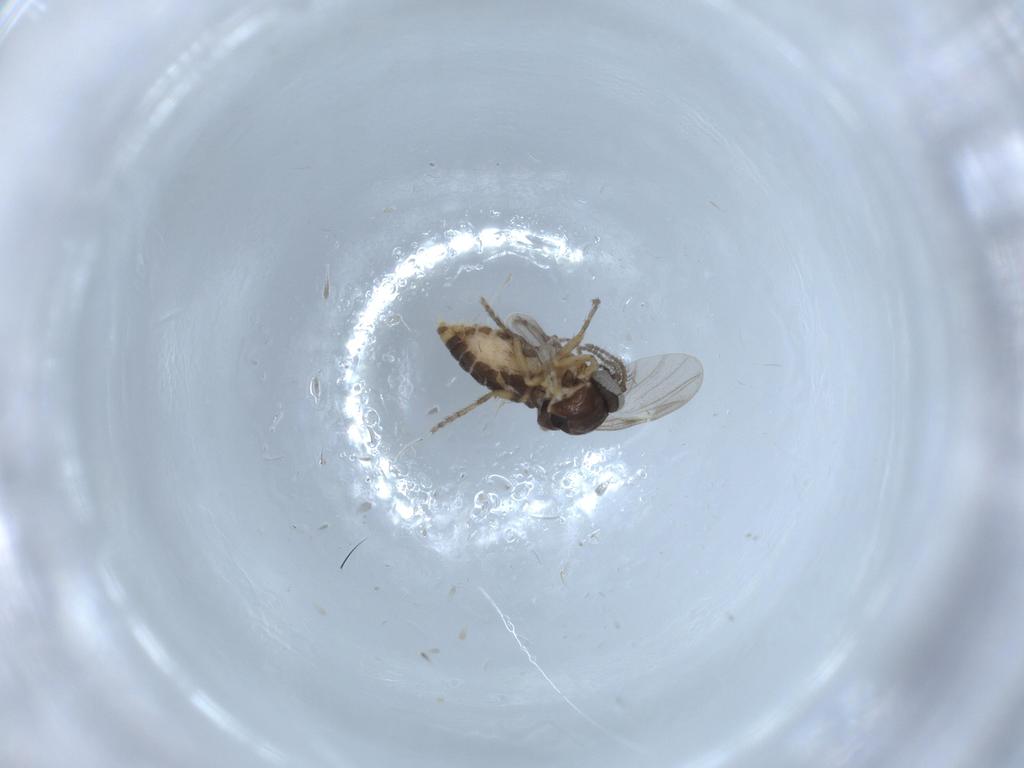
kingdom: Animalia
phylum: Arthropoda
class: Insecta
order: Diptera
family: Ceratopogonidae
